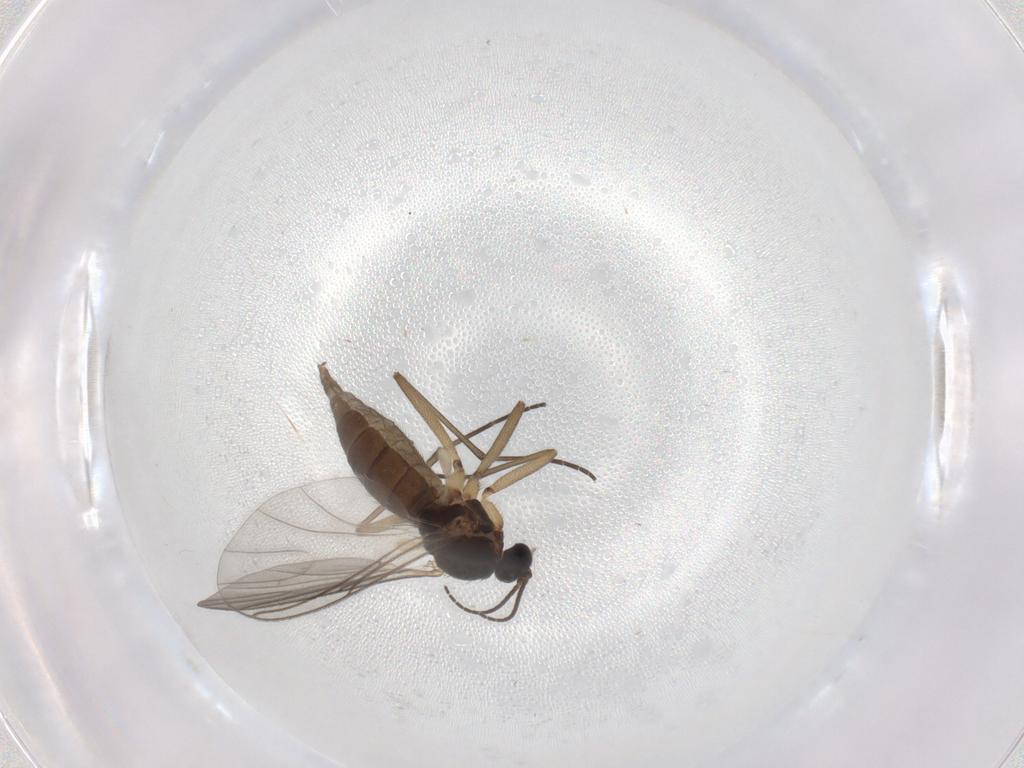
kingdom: Animalia
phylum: Arthropoda
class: Insecta
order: Diptera
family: Sciaridae
